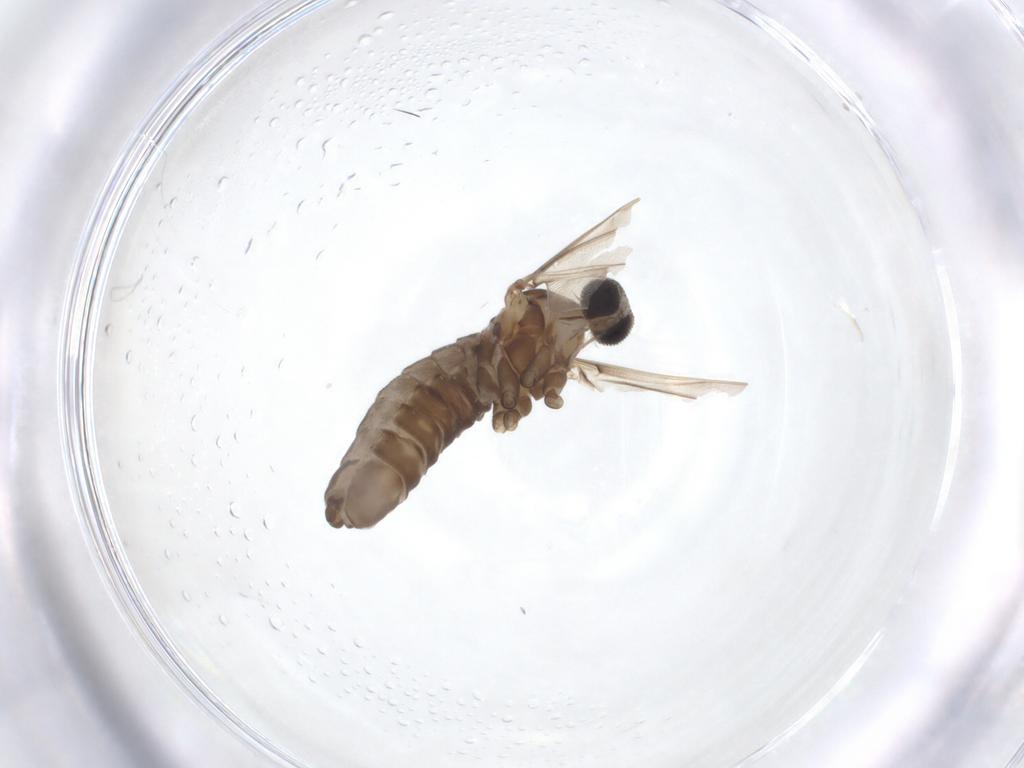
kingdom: Animalia
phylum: Arthropoda
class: Insecta
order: Diptera
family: Cecidomyiidae
